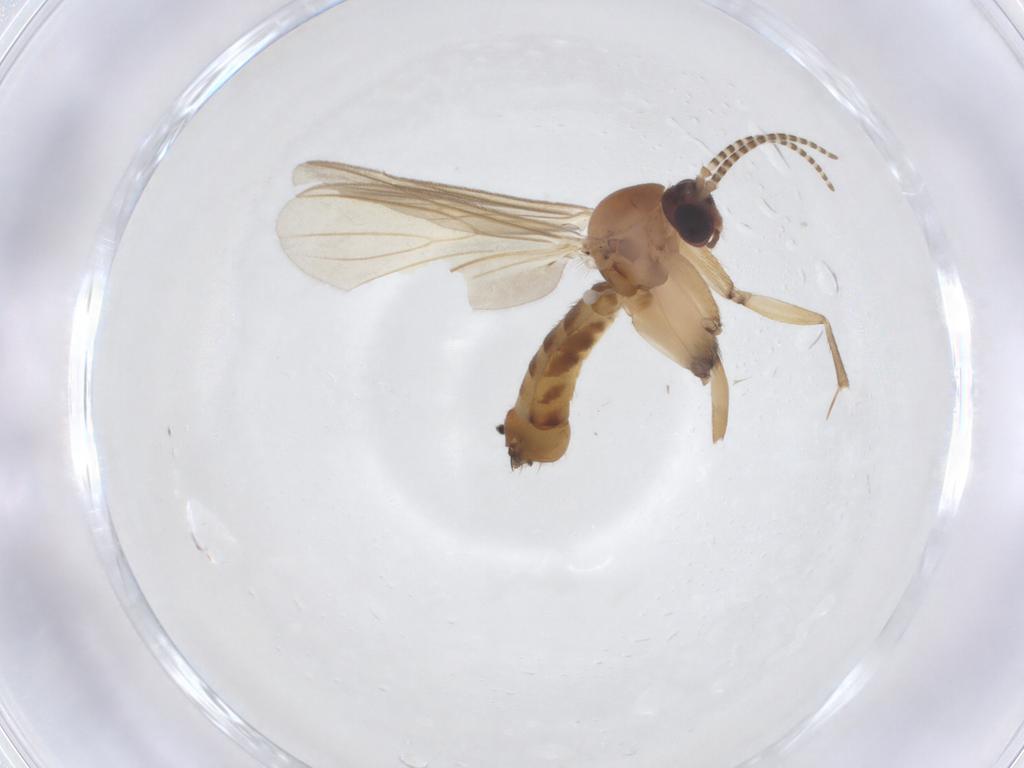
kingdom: Animalia
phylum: Arthropoda
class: Insecta
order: Diptera
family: Mycetophilidae
